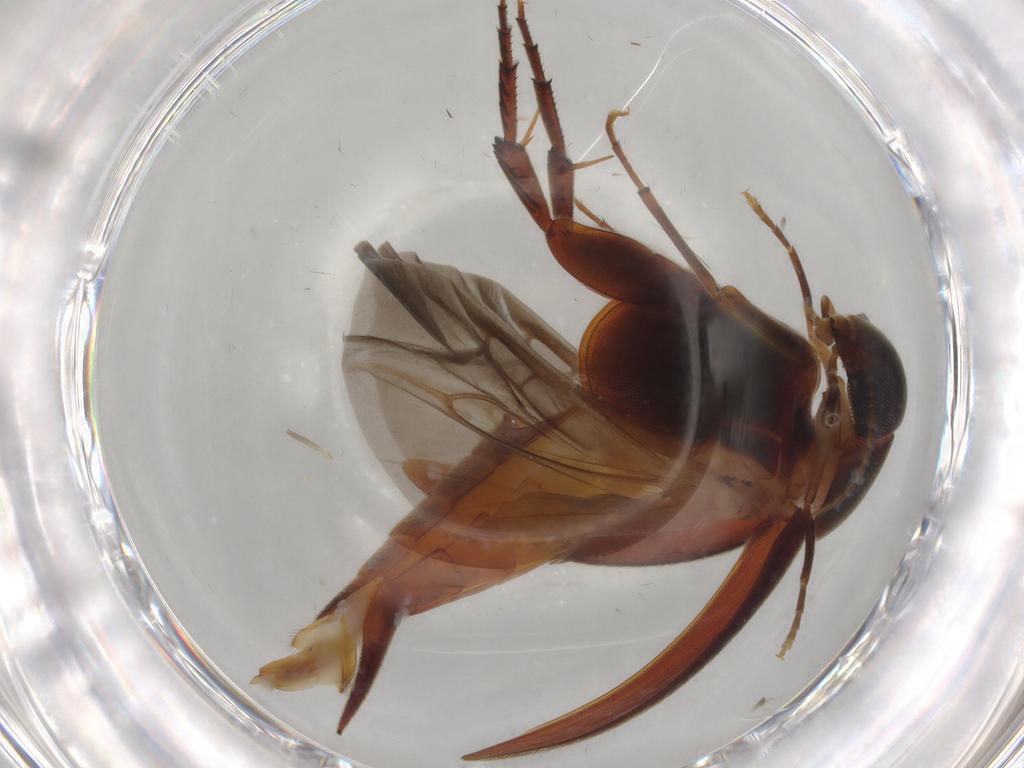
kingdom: Animalia
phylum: Arthropoda
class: Insecta
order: Coleoptera
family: Mordellidae
